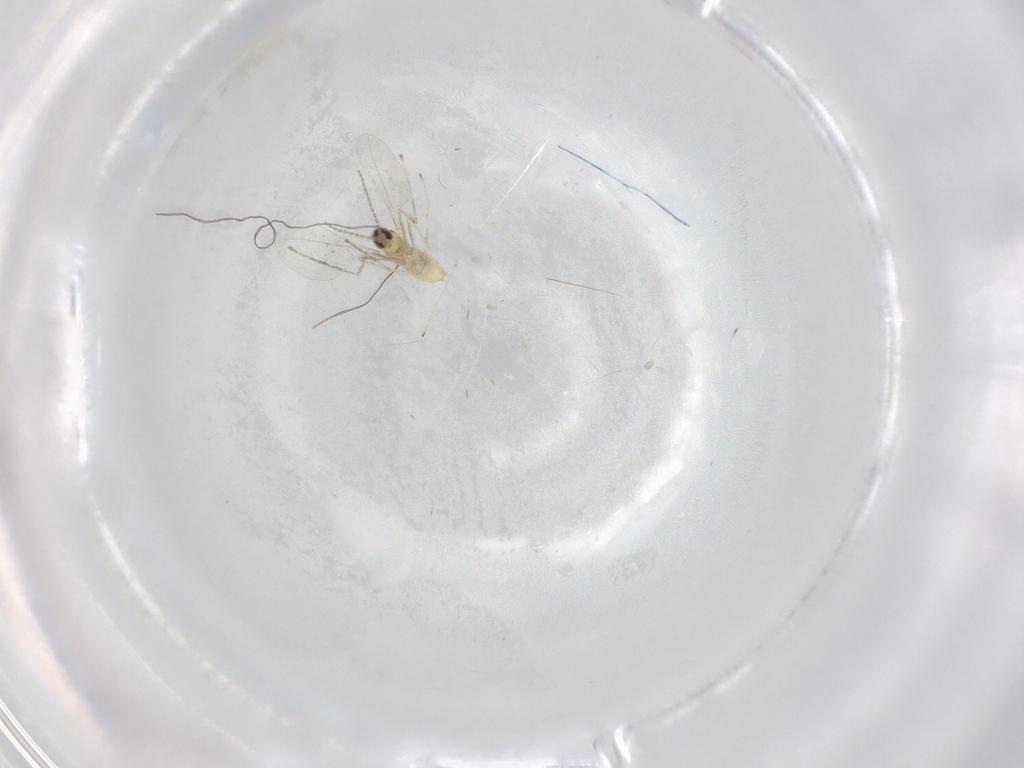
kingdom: Animalia
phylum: Arthropoda
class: Insecta
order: Diptera
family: Cecidomyiidae
